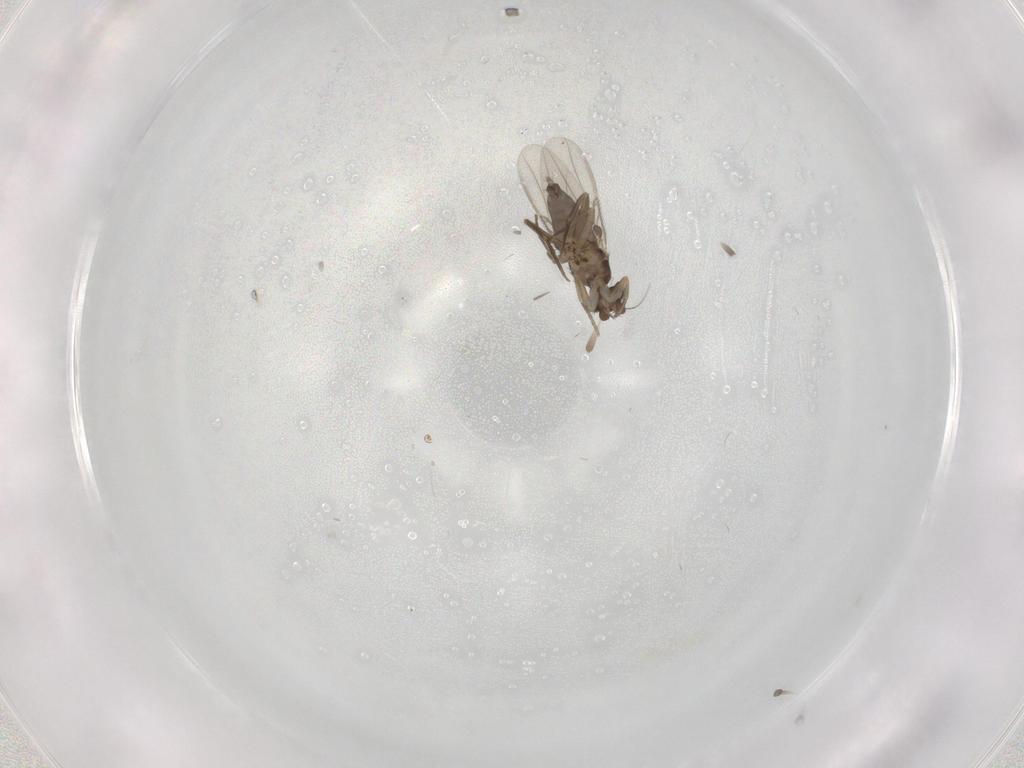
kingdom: Animalia
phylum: Arthropoda
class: Insecta
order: Diptera
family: Phoridae
